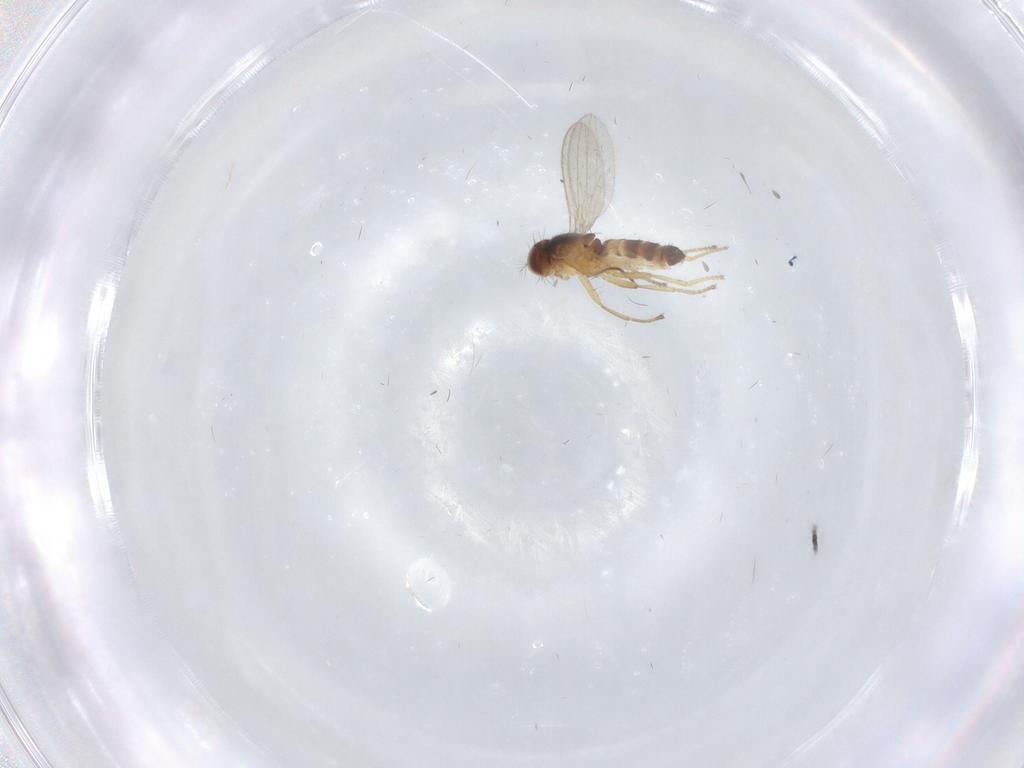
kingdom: Animalia
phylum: Arthropoda
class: Insecta
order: Diptera
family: Periscelididae
